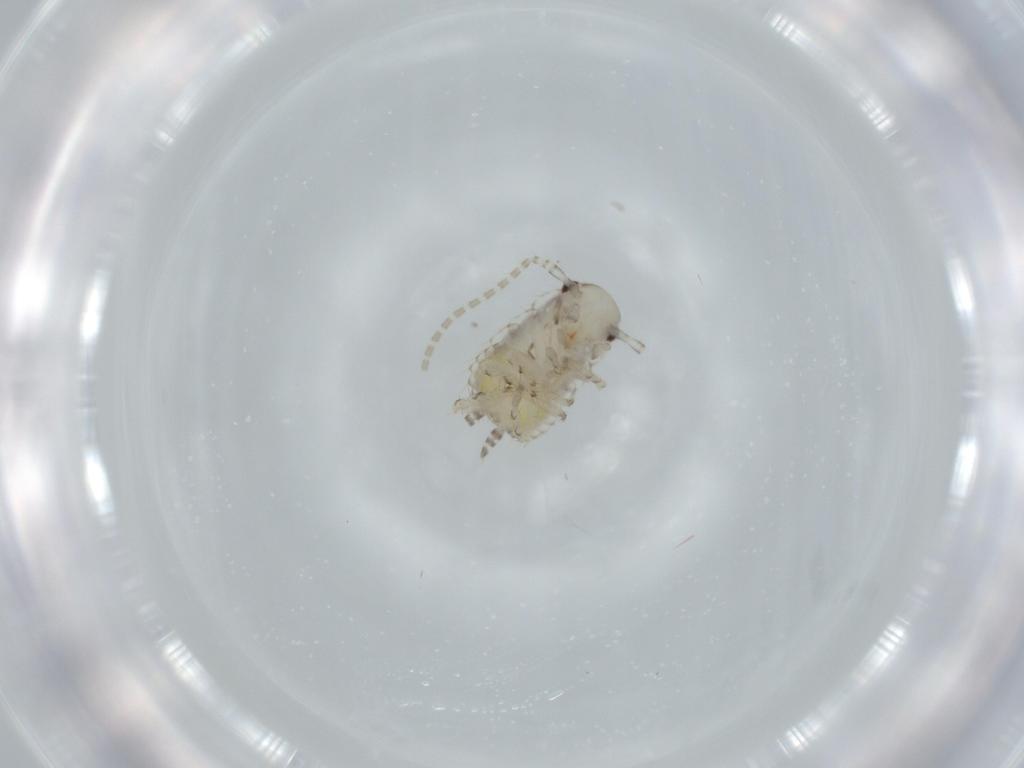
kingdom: Animalia
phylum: Arthropoda
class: Insecta
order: Blattodea
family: Ectobiidae
